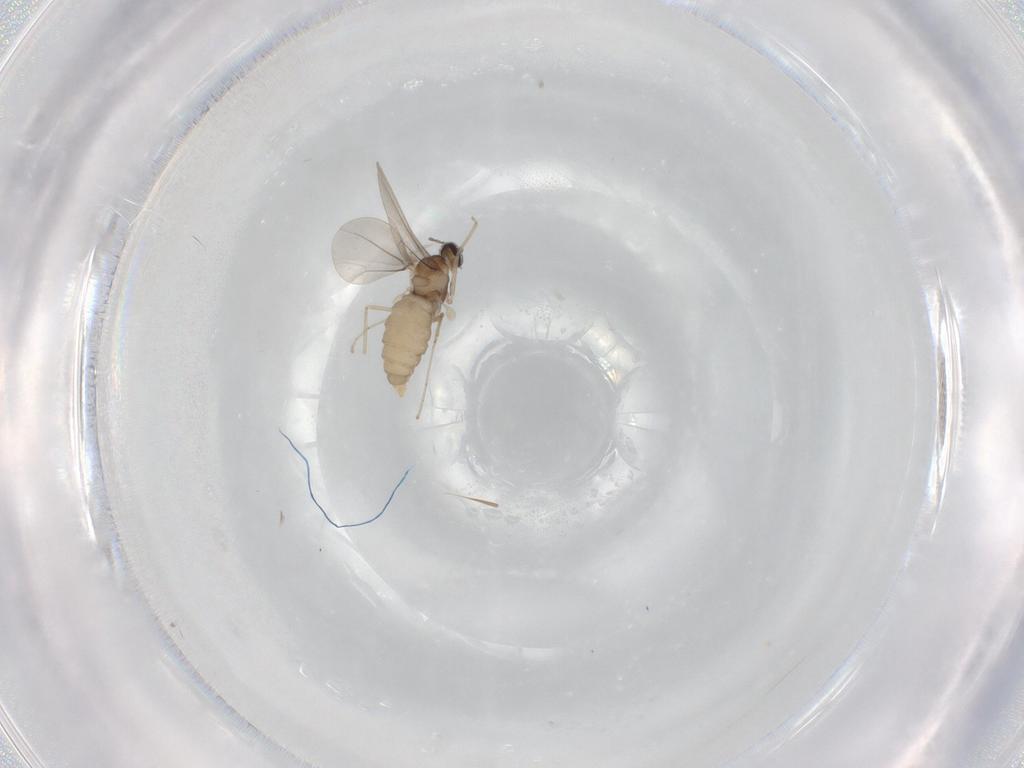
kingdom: Animalia
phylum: Arthropoda
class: Insecta
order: Diptera
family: Cecidomyiidae
